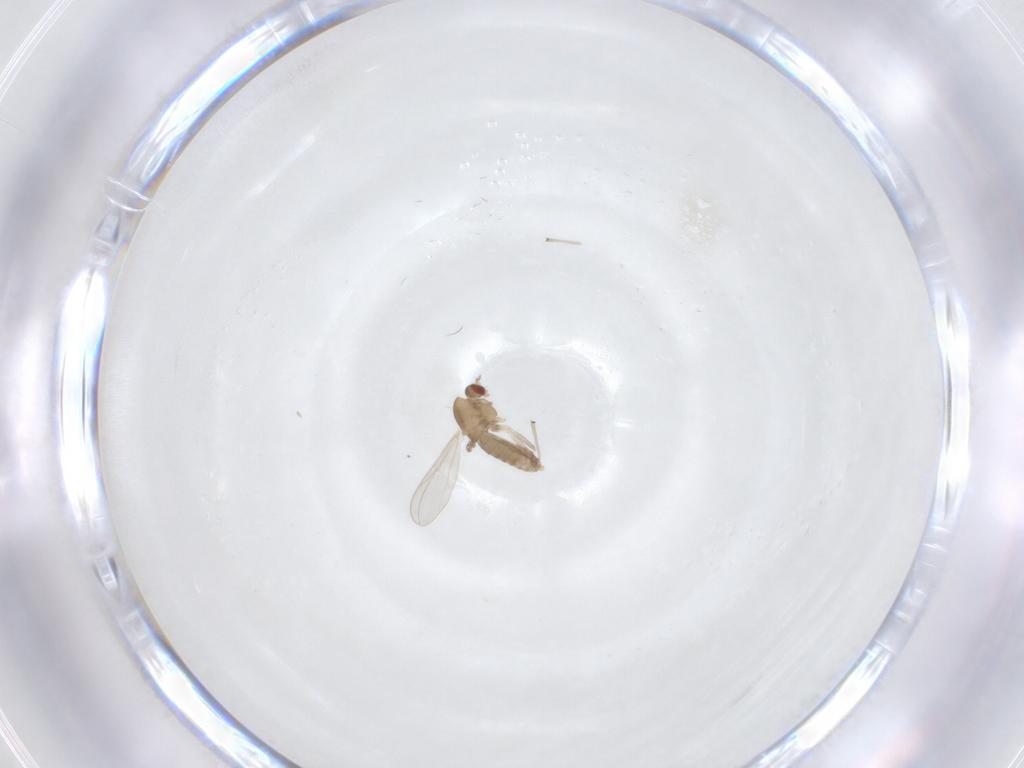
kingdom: Animalia
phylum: Arthropoda
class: Insecta
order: Diptera
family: Chironomidae
